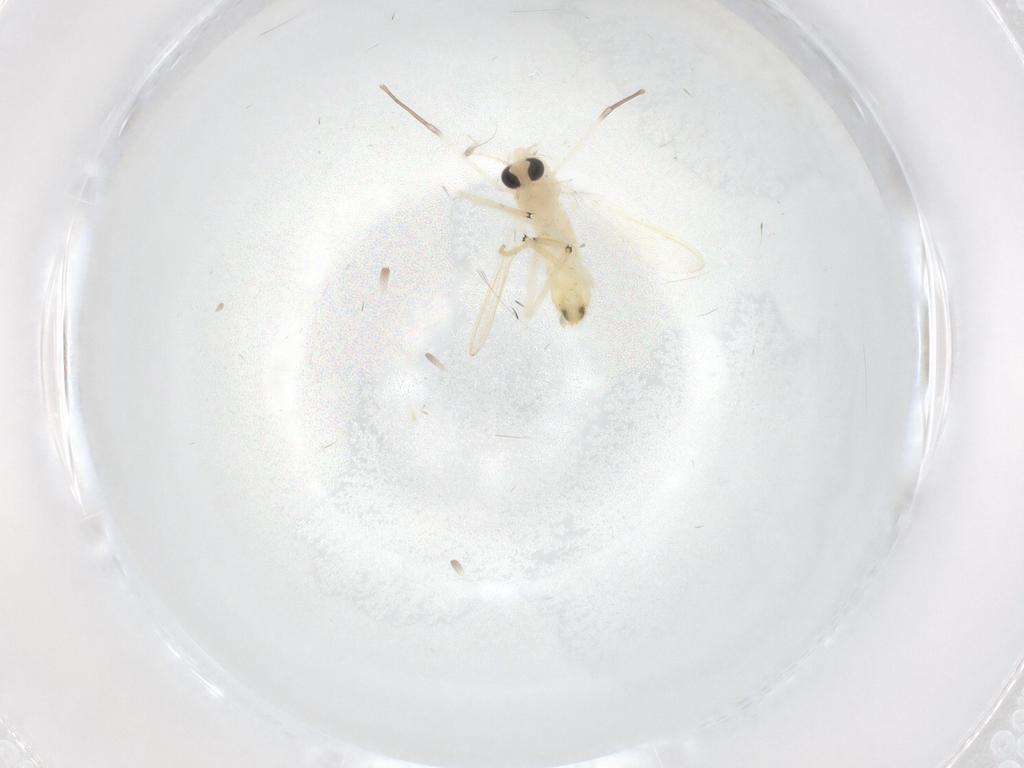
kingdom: Animalia
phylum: Arthropoda
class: Insecta
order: Diptera
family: Chironomidae
